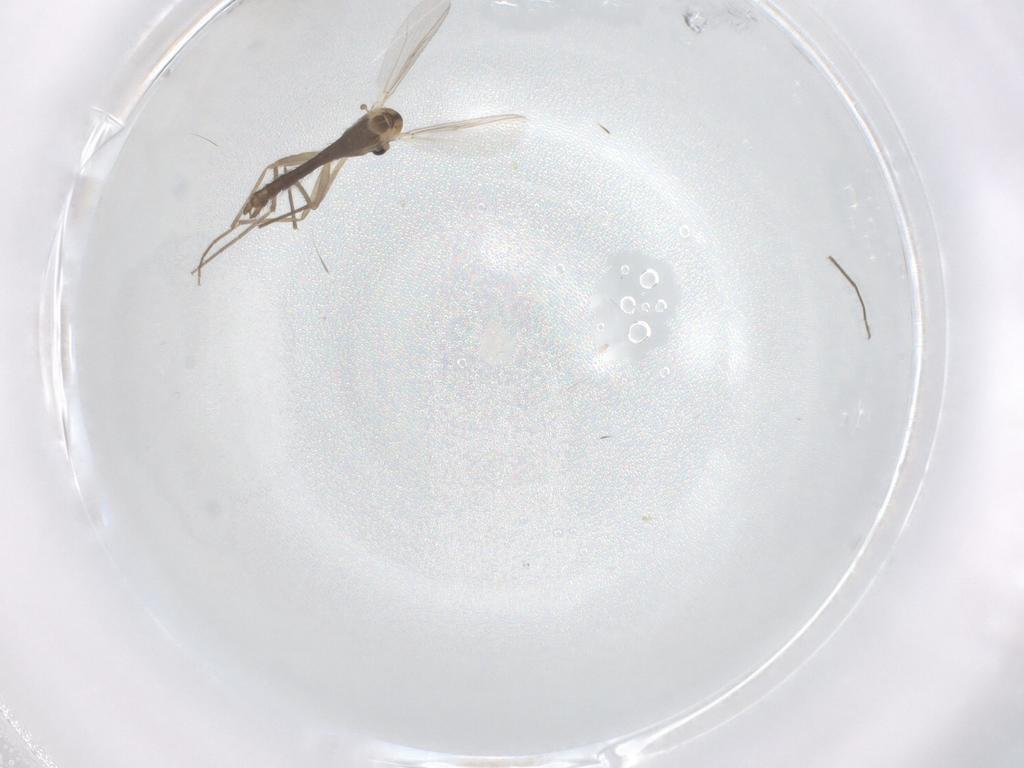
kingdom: Animalia
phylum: Arthropoda
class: Insecta
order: Diptera
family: Chironomidae
